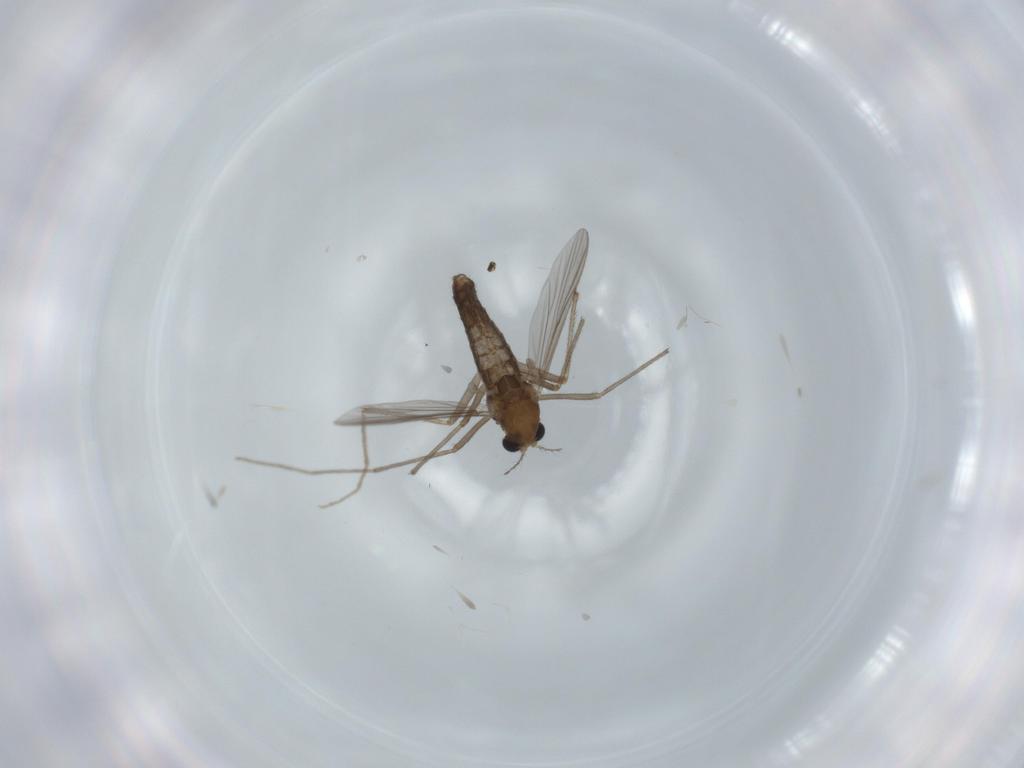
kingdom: Animalia
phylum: Arthropoda
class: Insecta
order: Diptera
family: Chironomidae
